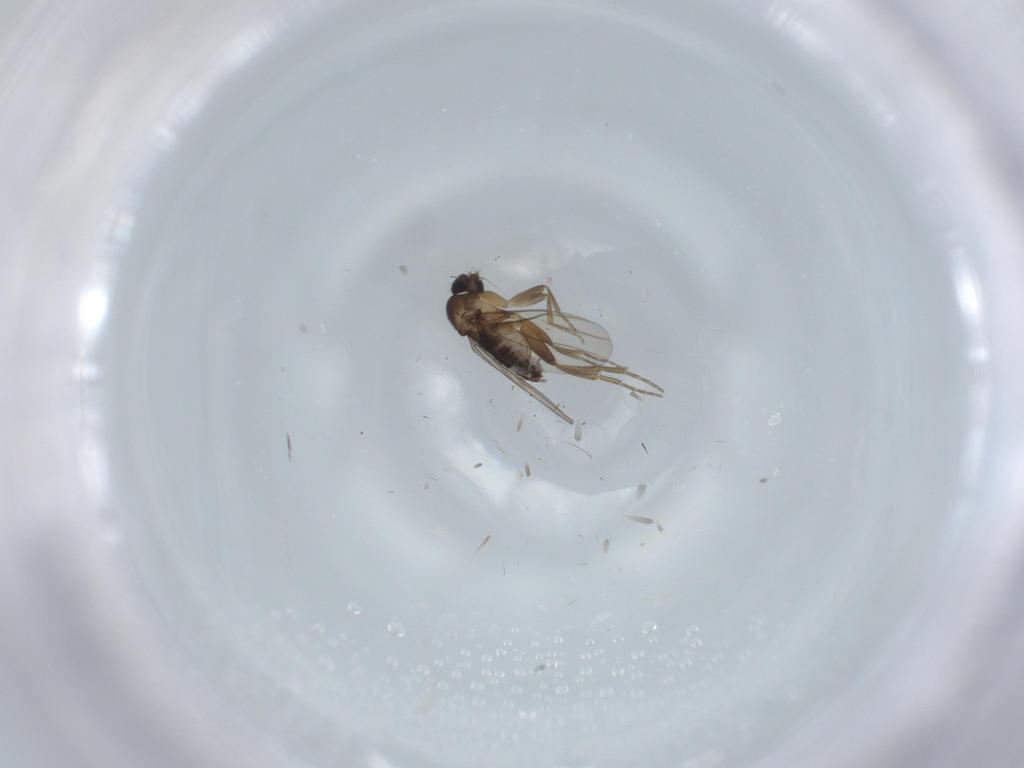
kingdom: Animalia
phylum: Arthropoda
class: Insecta
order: Diptera
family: Phoridae
